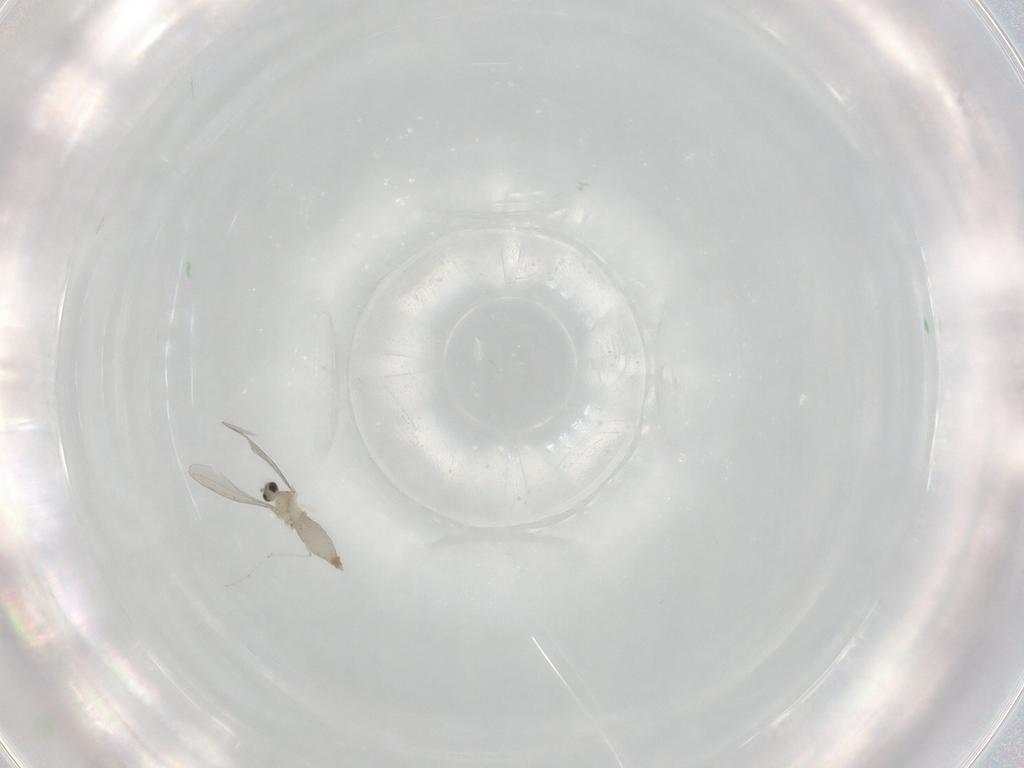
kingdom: Animalia
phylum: Arthropoda
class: Insecta
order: Diptera
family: Cecidomyiidae
